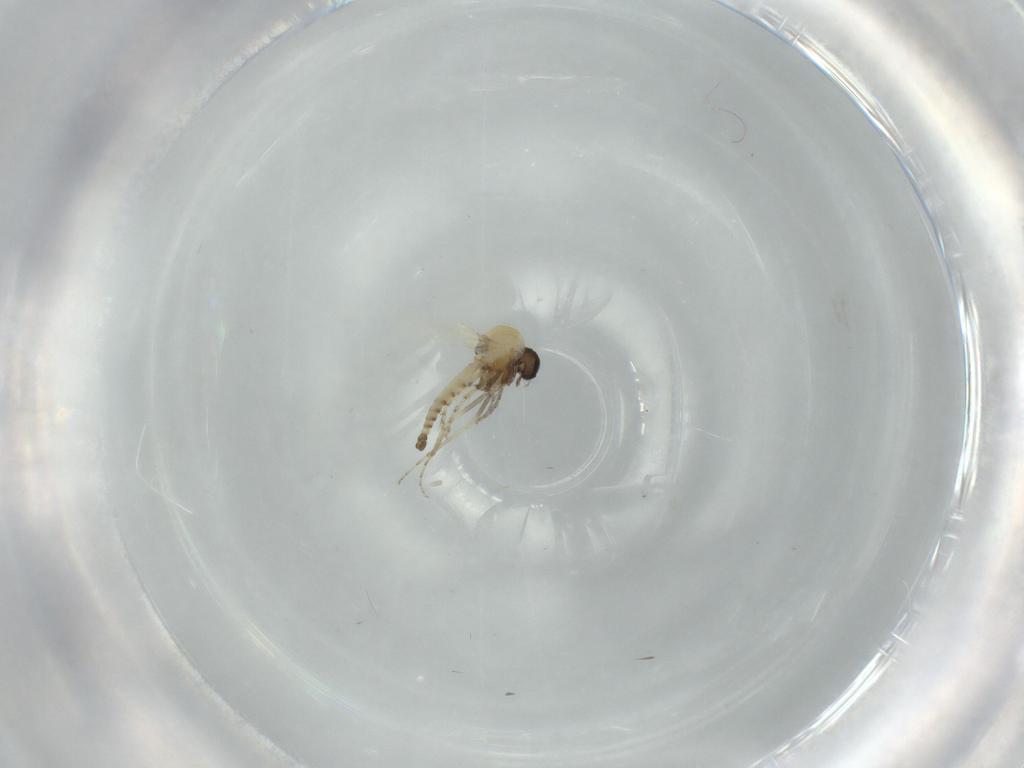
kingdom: Animalia
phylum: Arthropoda
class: Insecta
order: Diptera
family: Ceratopogonidae
